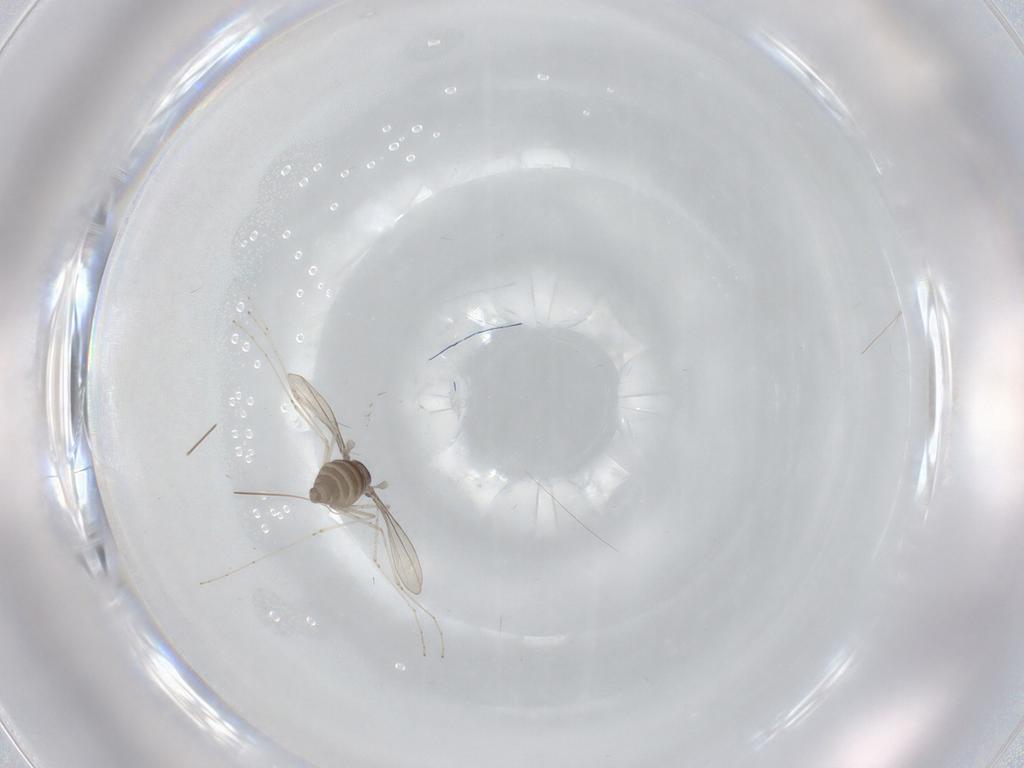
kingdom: Animalia
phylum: Arthropoda
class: Insecta
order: Diptera
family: Cecidomyiidae
